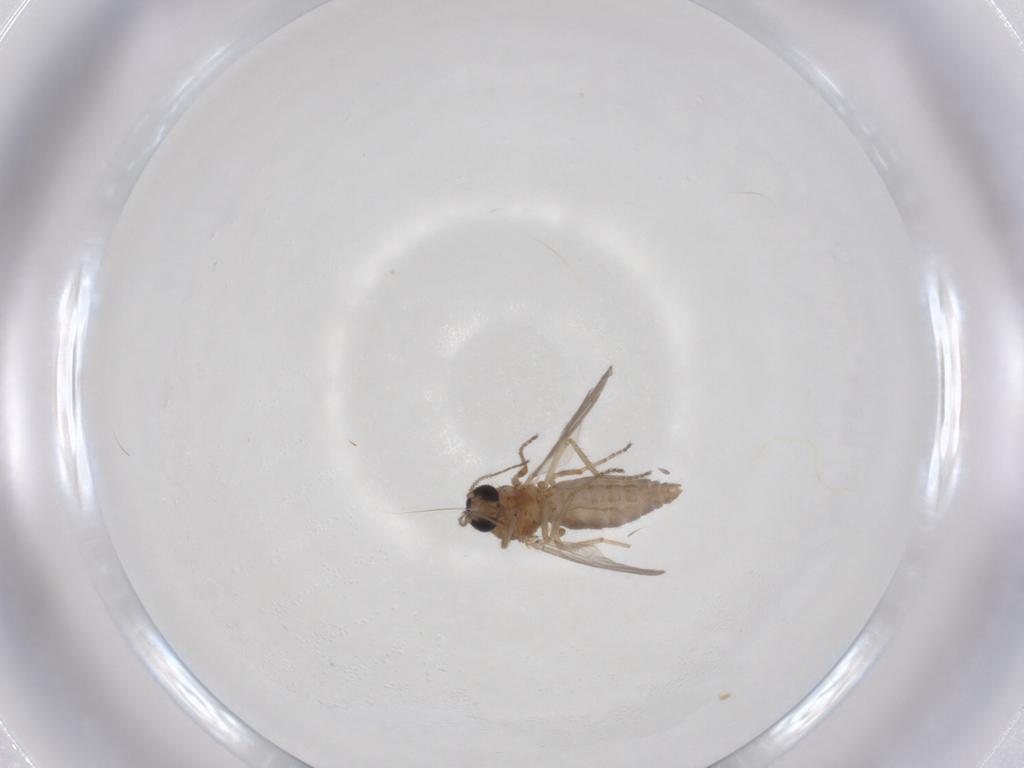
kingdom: Animalia
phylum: Arthropoda
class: Insecta
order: Diptera
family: Ceratopogonidae
